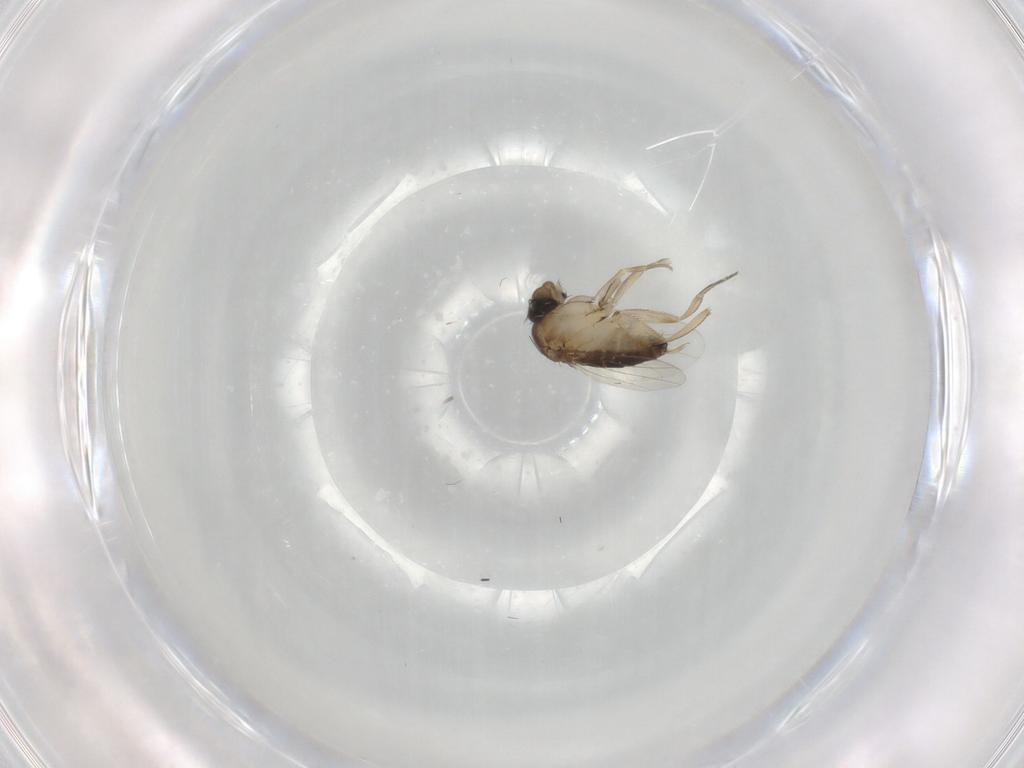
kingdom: Animalia
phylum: Arthropoda
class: Insecta
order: Diptera
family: Phoridae
